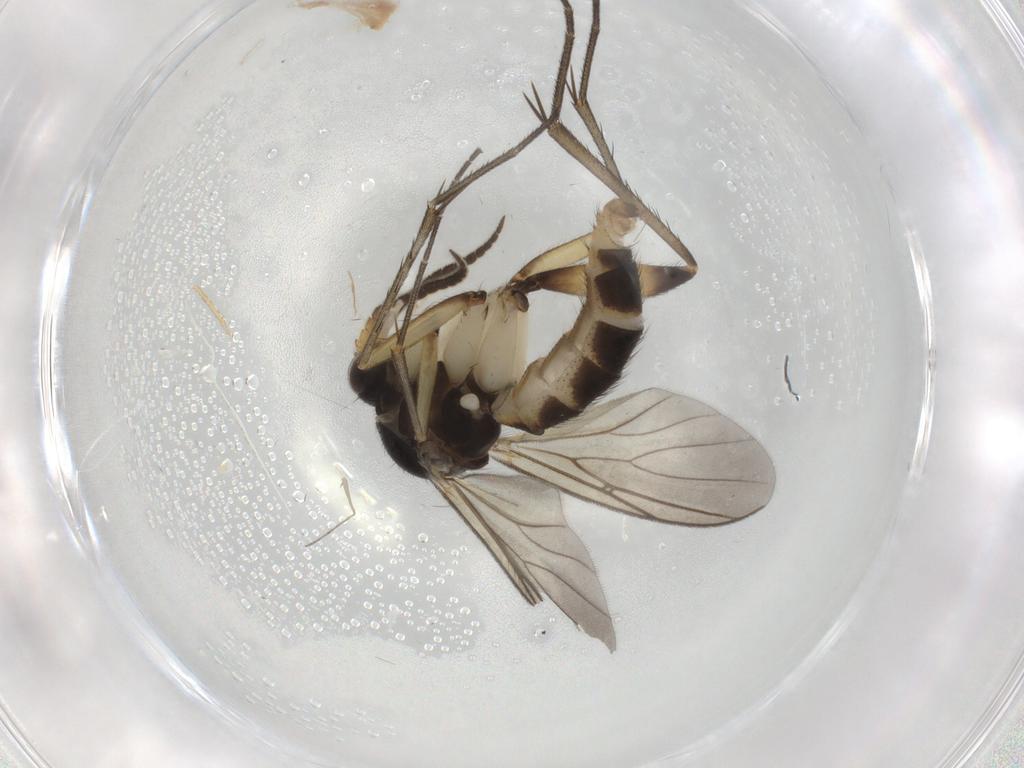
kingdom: Animalia
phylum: Arthropoda
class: Insecta
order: Diptera
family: Mycetophilidae
